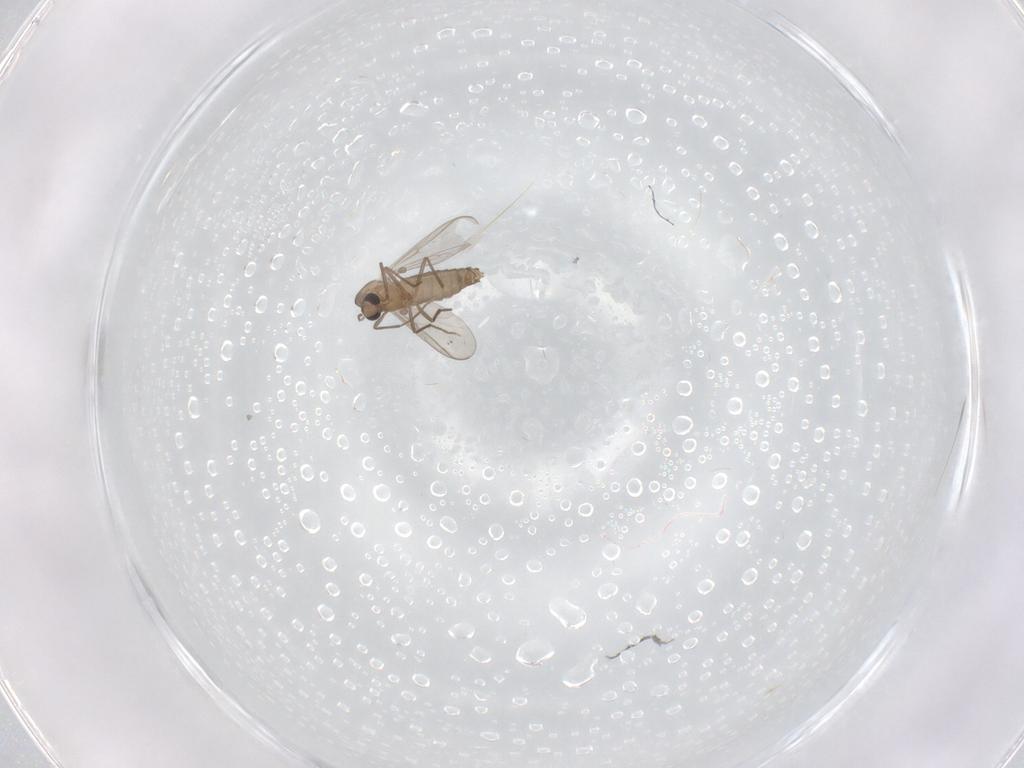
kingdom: Animalia
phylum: Arthropoda
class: Insecta
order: Diptera
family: Chironomidae
